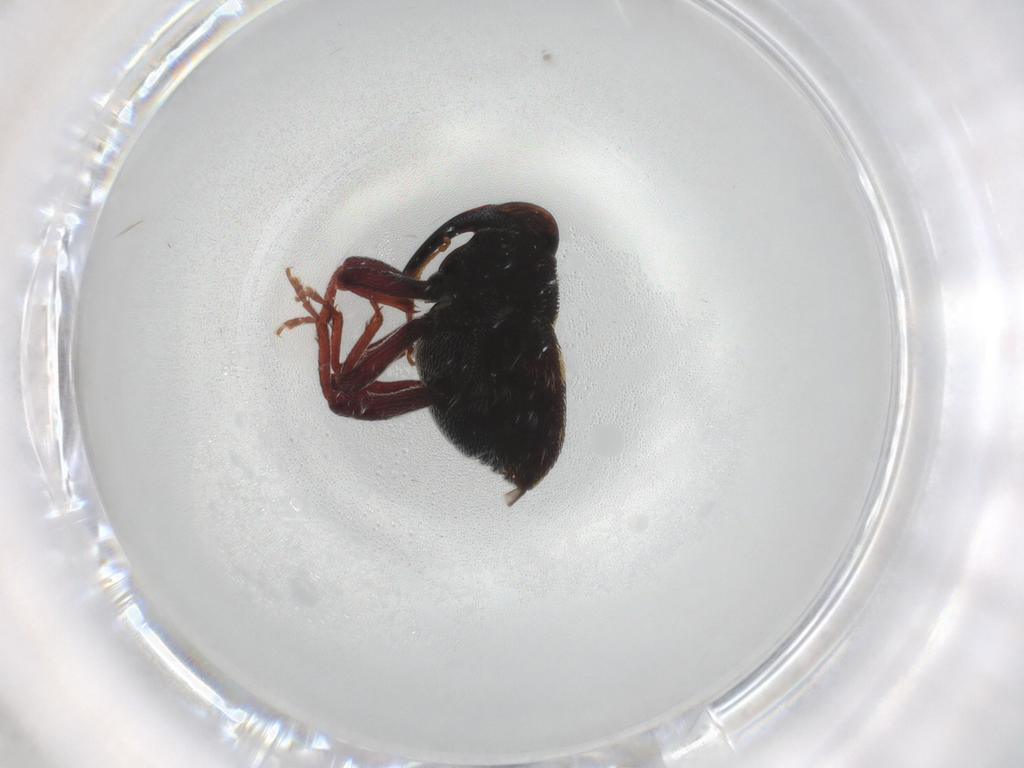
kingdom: Animalia
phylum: Arthropoda
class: Insecta
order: Coleoptera
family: Curculionidae
